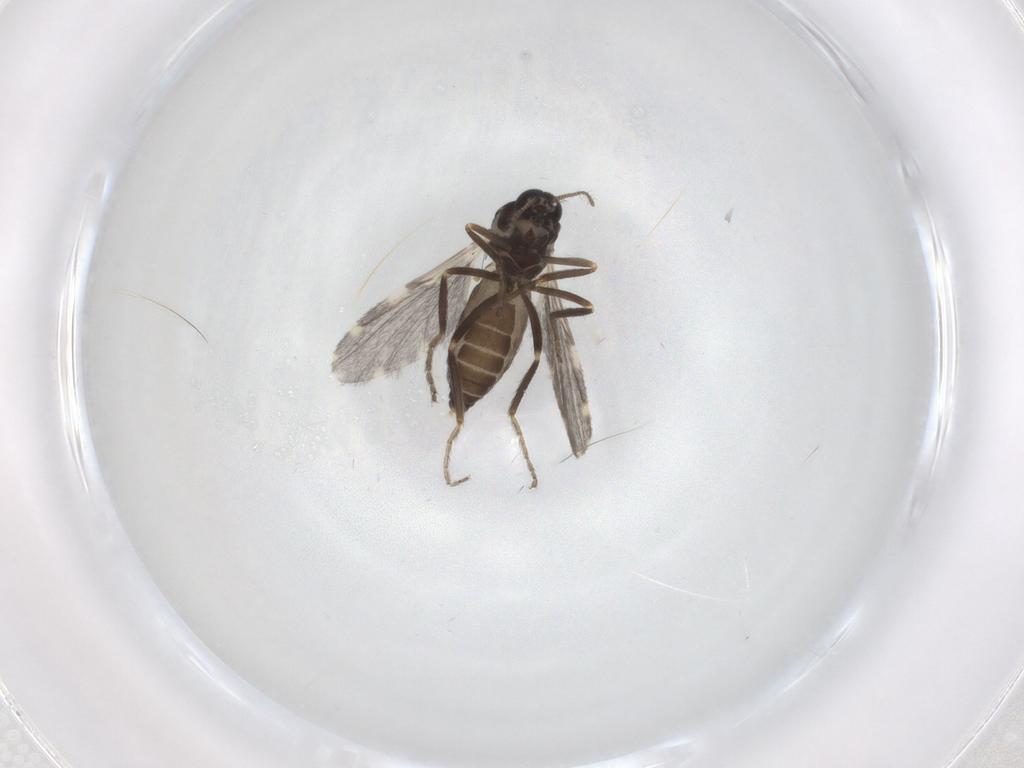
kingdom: Animalia
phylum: Arthropoda
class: Insecta
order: Diptera
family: Ceratopogonidae
